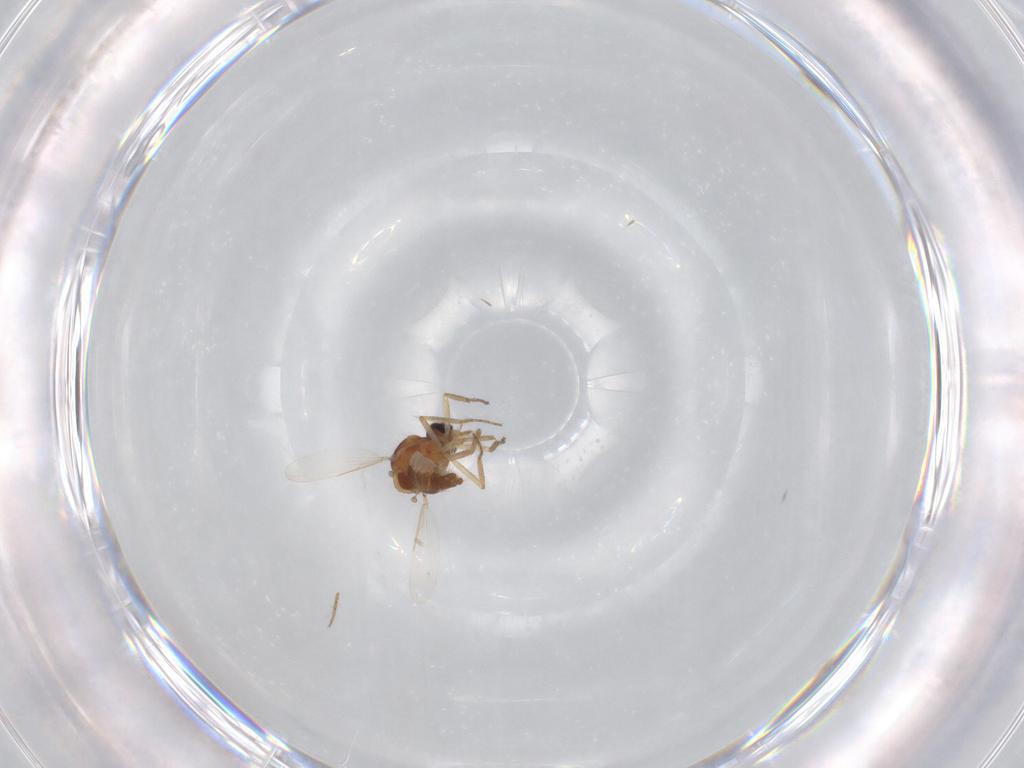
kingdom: Animalia
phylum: Arthropoda
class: Insecta
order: Diptera
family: Ceratopogonidae
